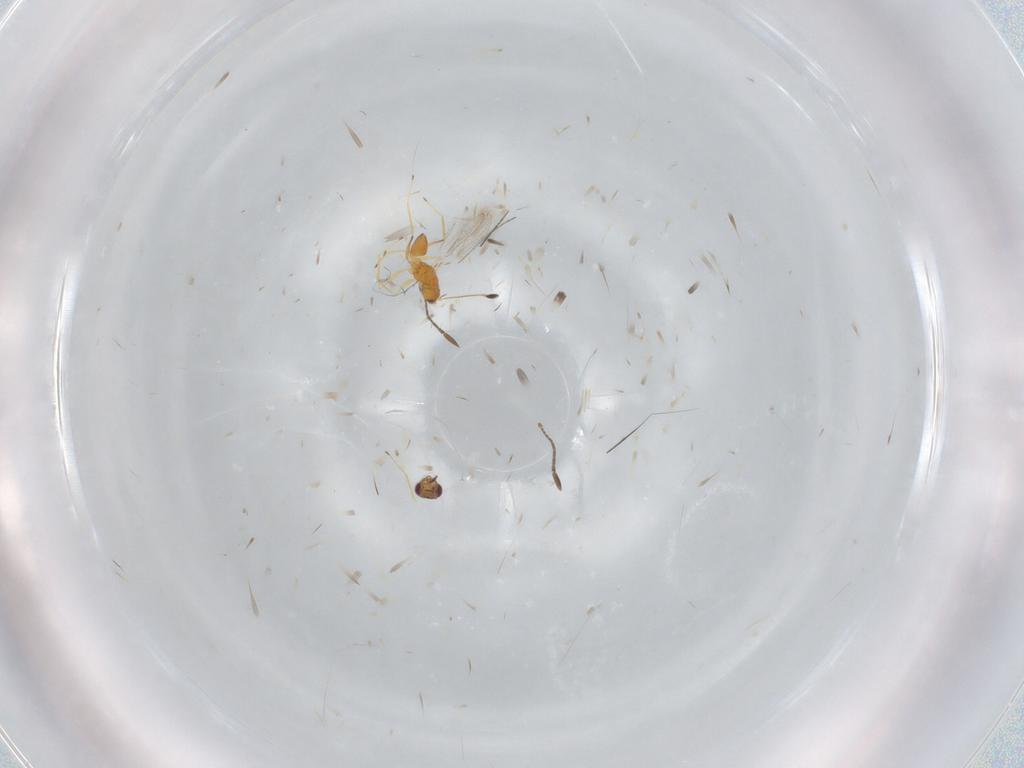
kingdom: Animalia
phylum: Arthropoda
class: Insecta
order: Hymenoptera
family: Mymaridae
